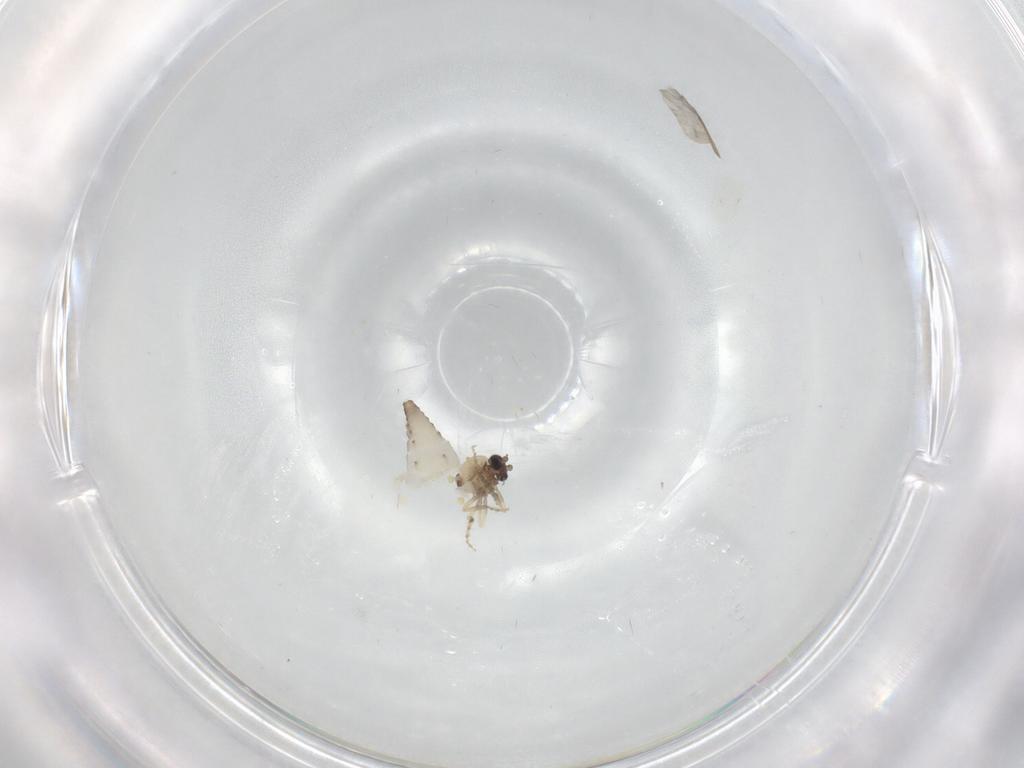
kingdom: Animalia
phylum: Arthropoda
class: Insecta
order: Diptera
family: Ceratopogonidae
